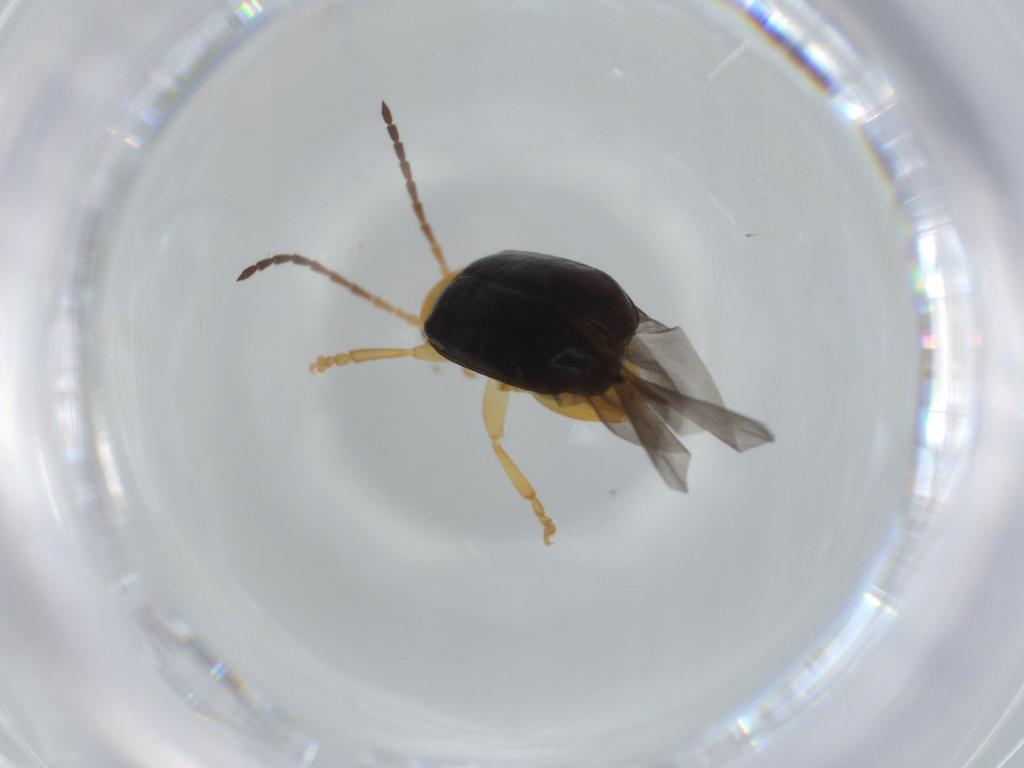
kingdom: Animalia
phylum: Arthropoda
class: Insecta
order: Coleoptera
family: Chrysomelidae
